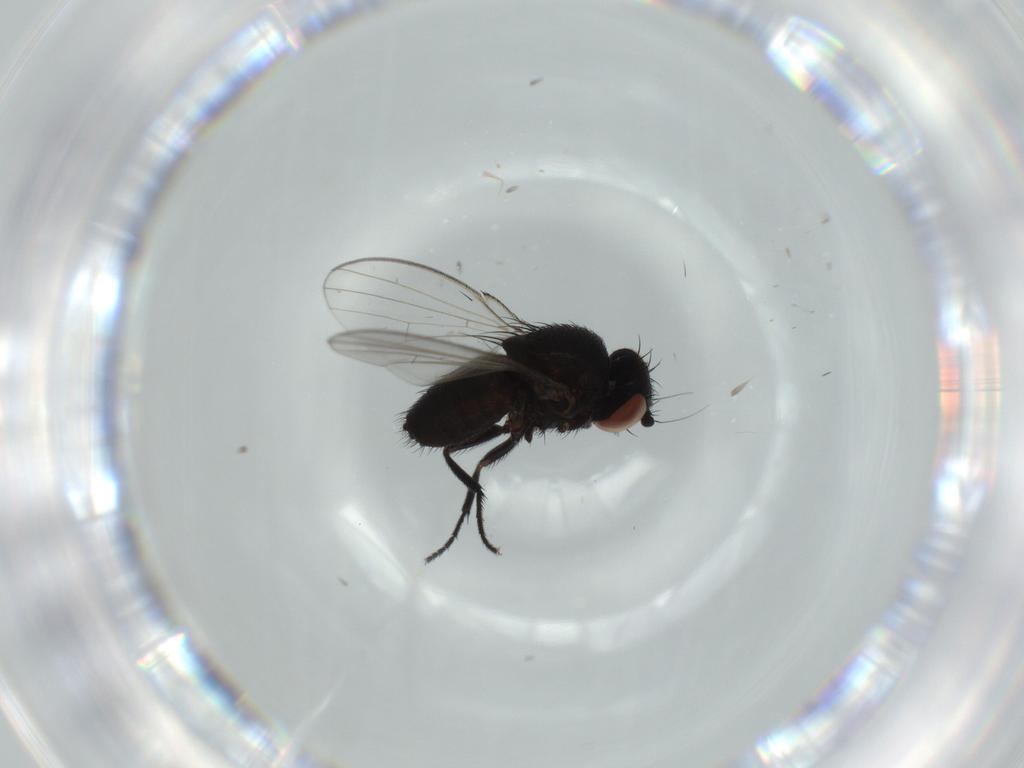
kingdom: Animalia
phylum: Arthropoda
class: Insecta
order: Diptera
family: Milichiidae
